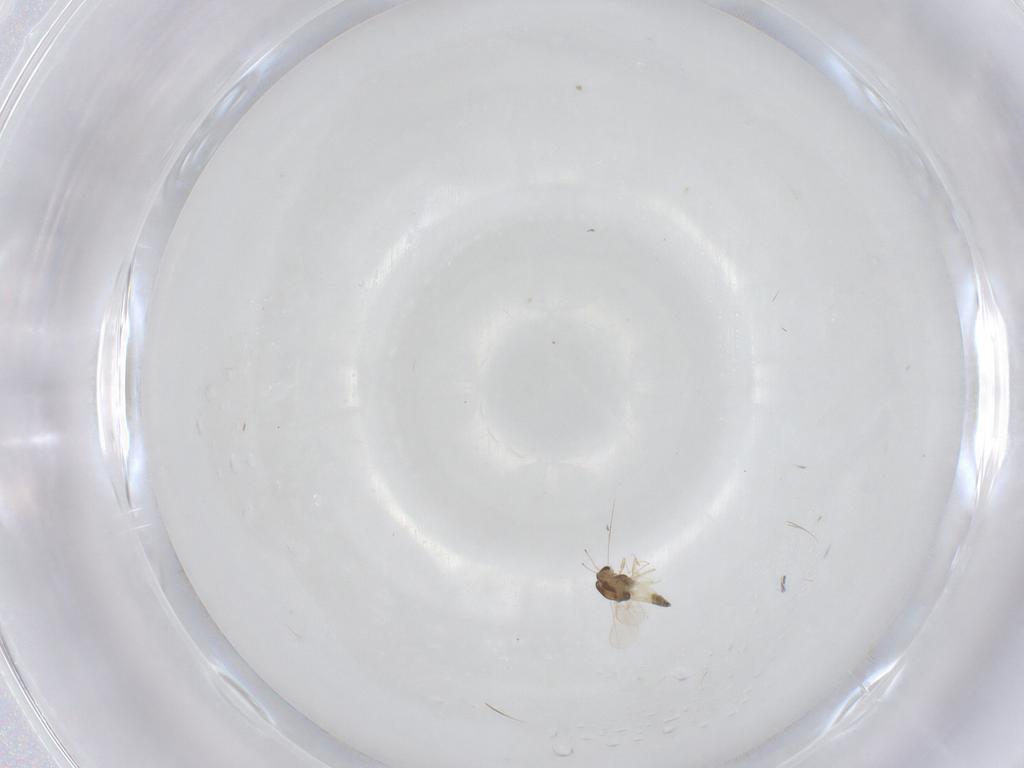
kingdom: Animalia
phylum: Arthropoda
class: Insecta
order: Diptera
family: Chironomidae
